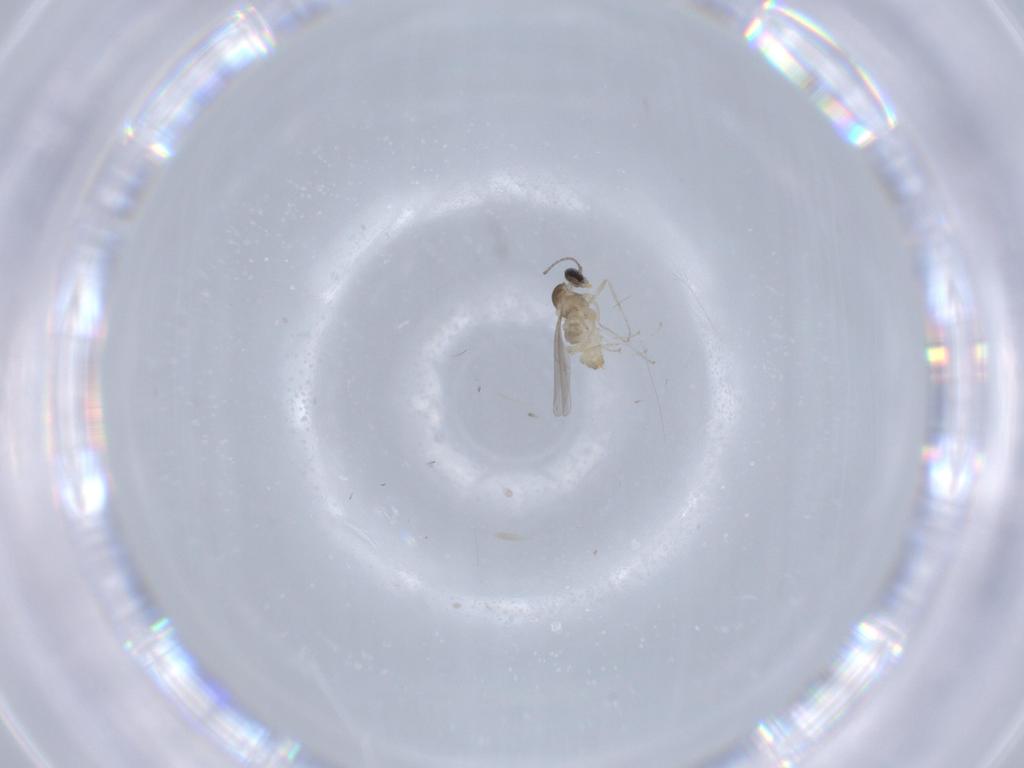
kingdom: Animalia
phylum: Arthropoda
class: Insecta
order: Diptera
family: Cecidomyiidae
